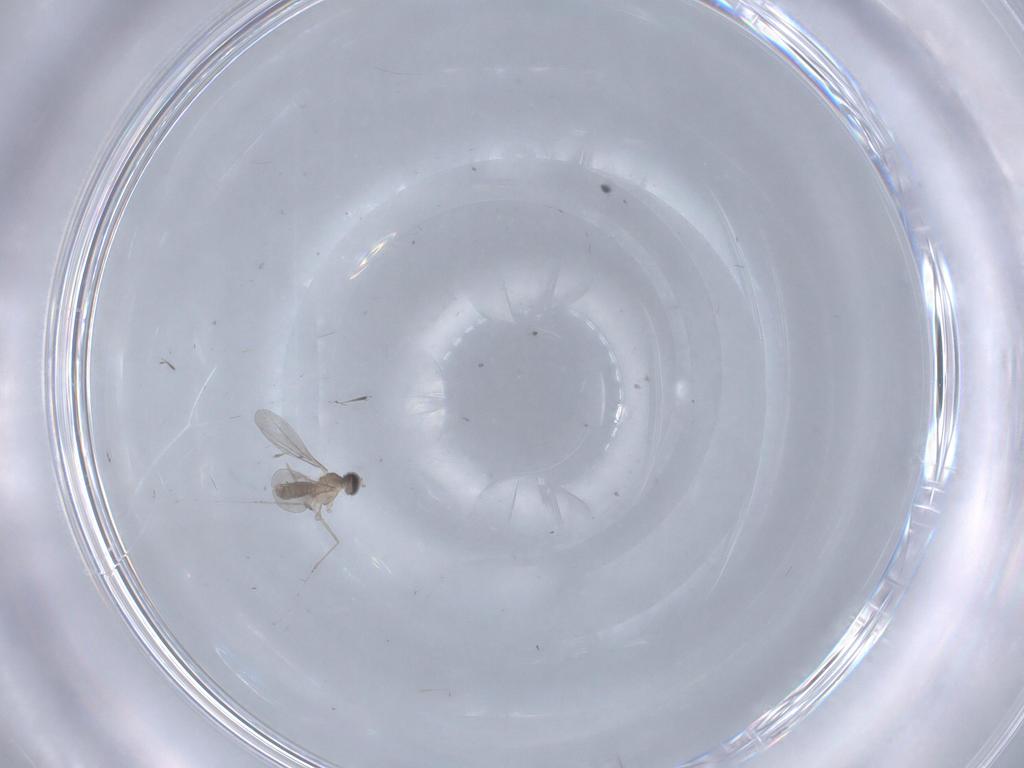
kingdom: Animalia
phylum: Arthropoda
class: Insecta
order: Diptera
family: Cecidomyiidae
